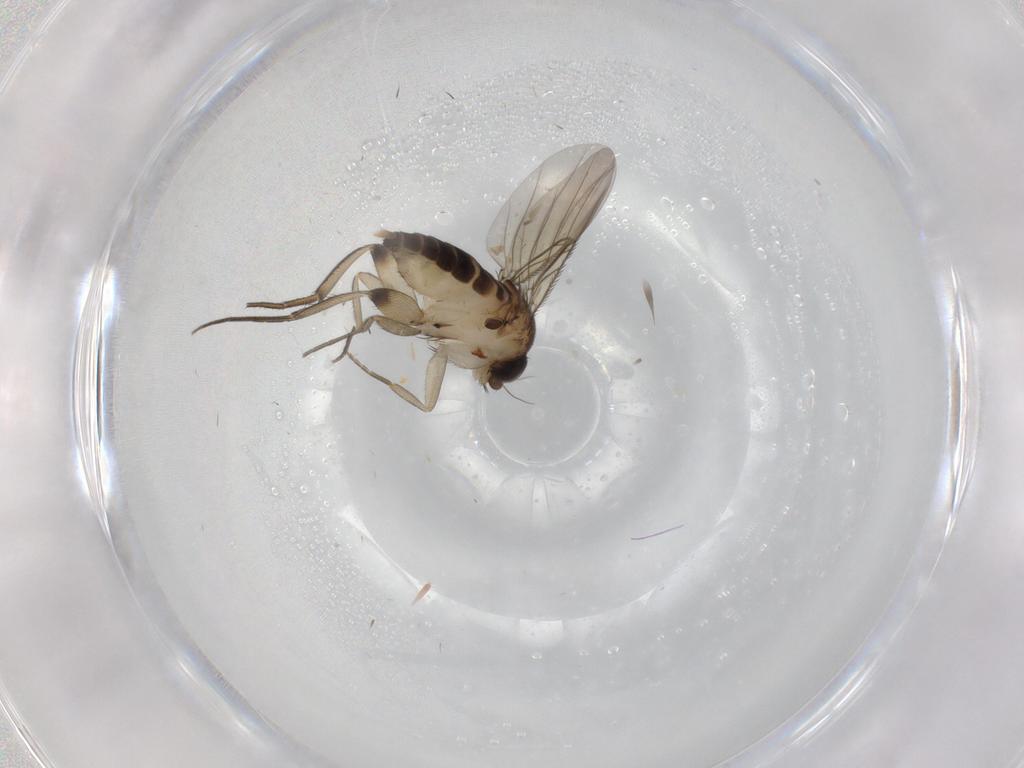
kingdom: Animalia
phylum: Arthropoda
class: Insecta
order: Diptera
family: Phoridae
